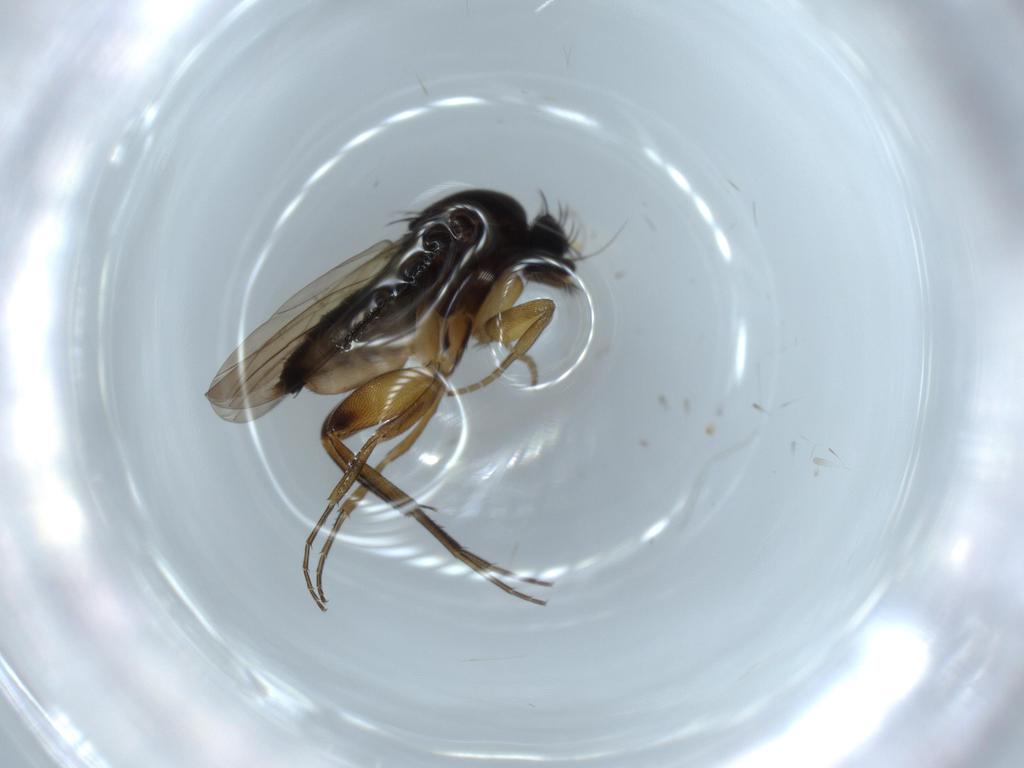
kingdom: Animalia
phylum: Arthropoda
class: Insecta
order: Diptera
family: Phoridae
